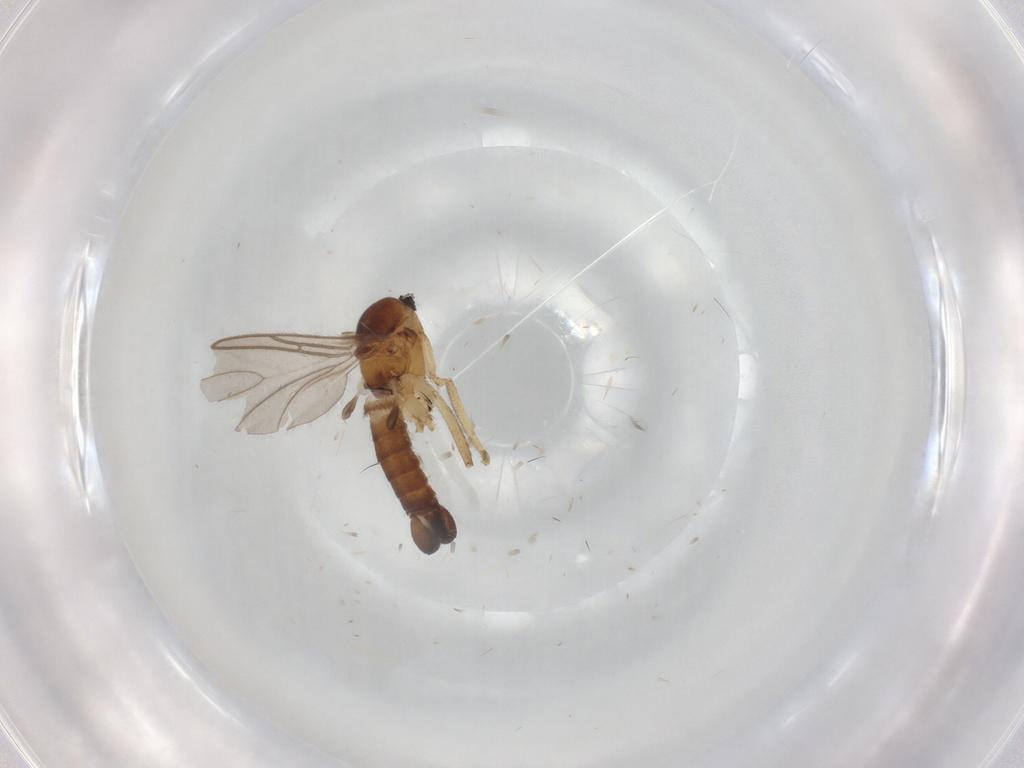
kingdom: Animalia
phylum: Arthropoda
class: Insecta
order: Diptera
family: Sciaridae
